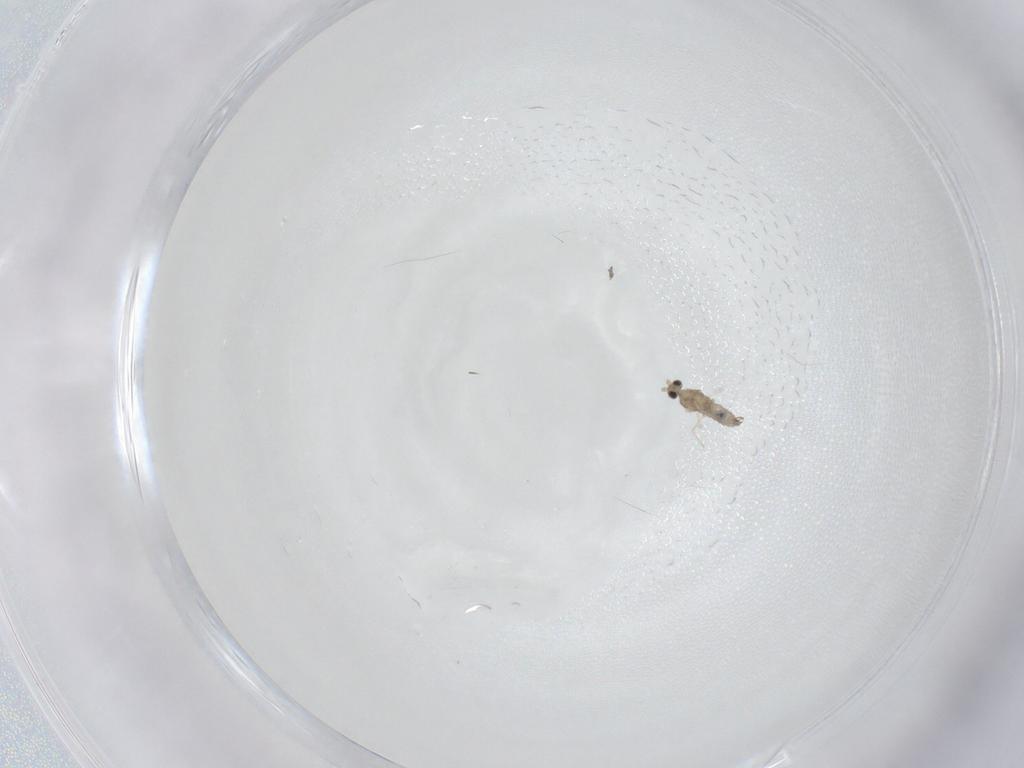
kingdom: Animalia
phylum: Arthropoda
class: Insecta
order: Diptera
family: Cecidomyiidae
